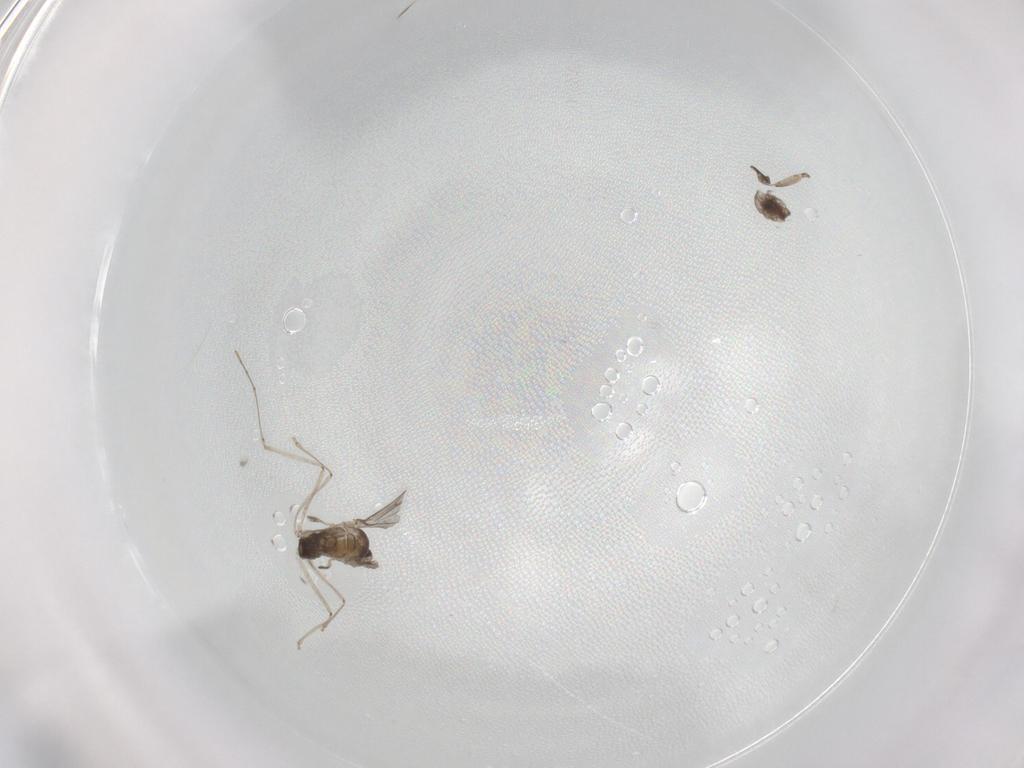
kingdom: Animalia
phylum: Arthropoda
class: Insecta
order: Diptera
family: Cecidomyiidae
